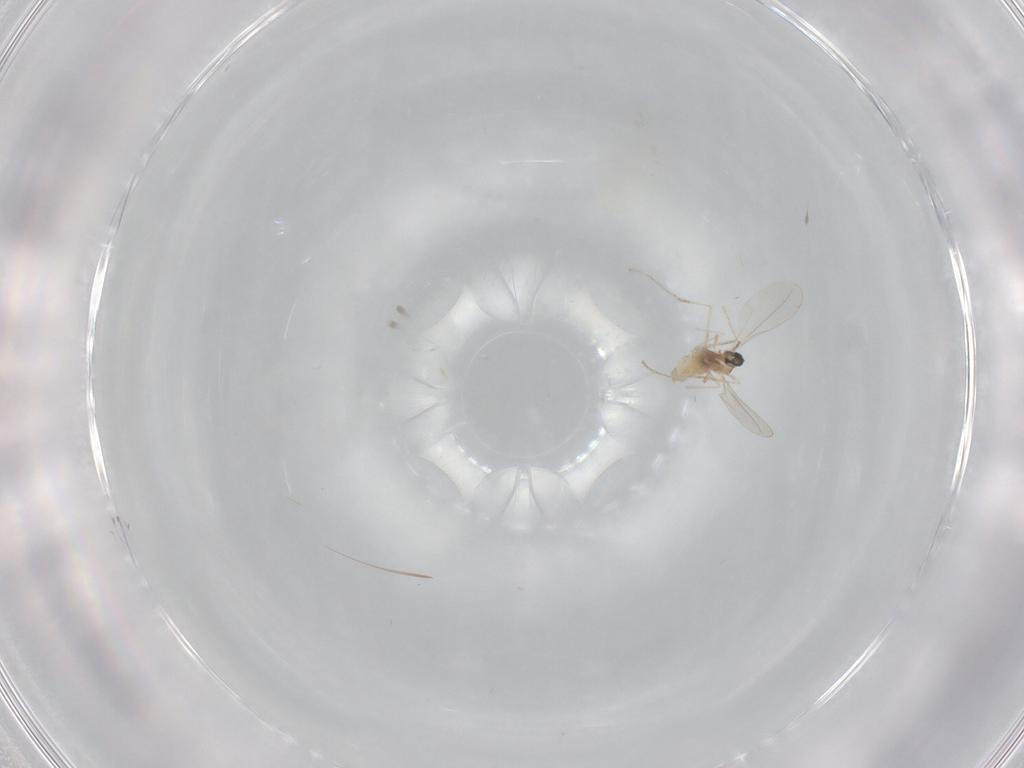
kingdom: Animalia
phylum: Arthropoda
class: Insecta
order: Diptera
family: Cecidomyiidae
